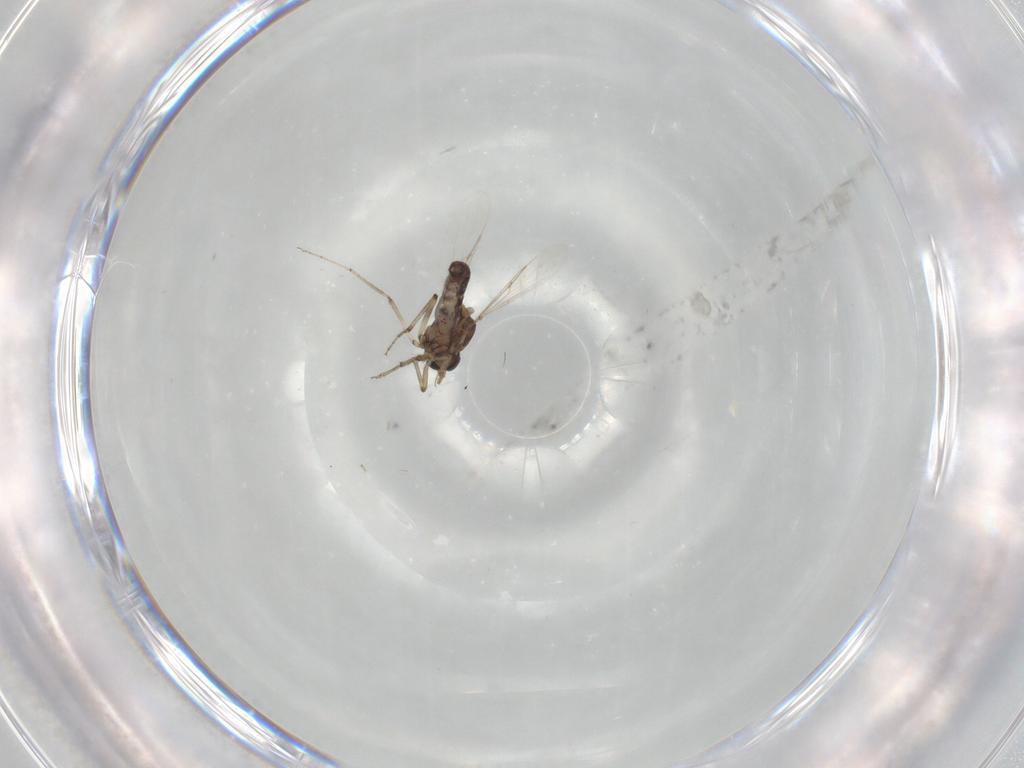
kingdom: Animalia
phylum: Arthropoda
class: Insecta
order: Diptera
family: Ceratopogonidae
